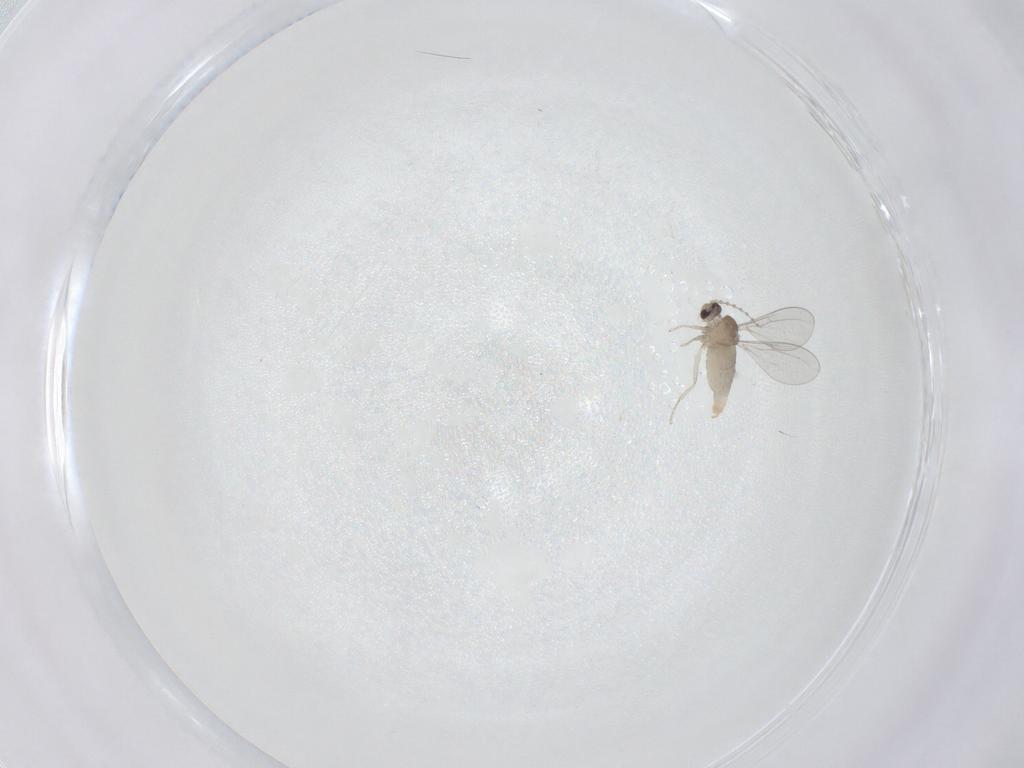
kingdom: Animalia
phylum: Arthropoda
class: Insecta
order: Diptera
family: Cecidomyiidae
